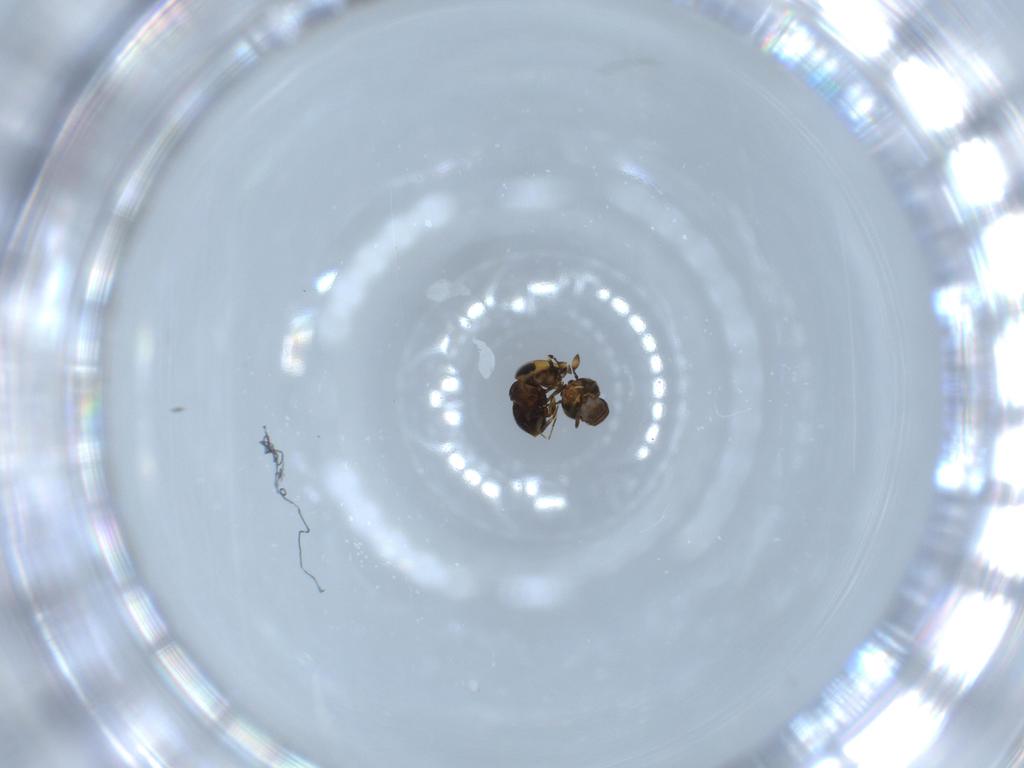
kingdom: Animalia
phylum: Arthropoda
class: Insecta
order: Hymenoptera
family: Scelionidae
